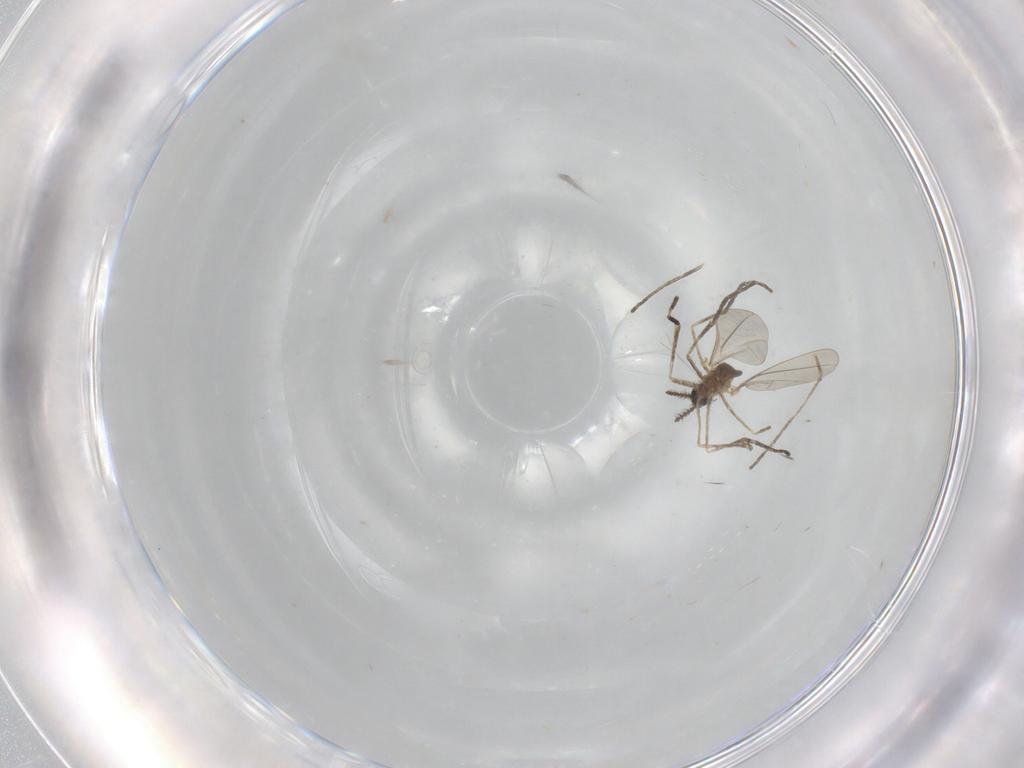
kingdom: Animalia
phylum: Arthropoda
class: Insecta
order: Diptera
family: Cecidomyiidae
